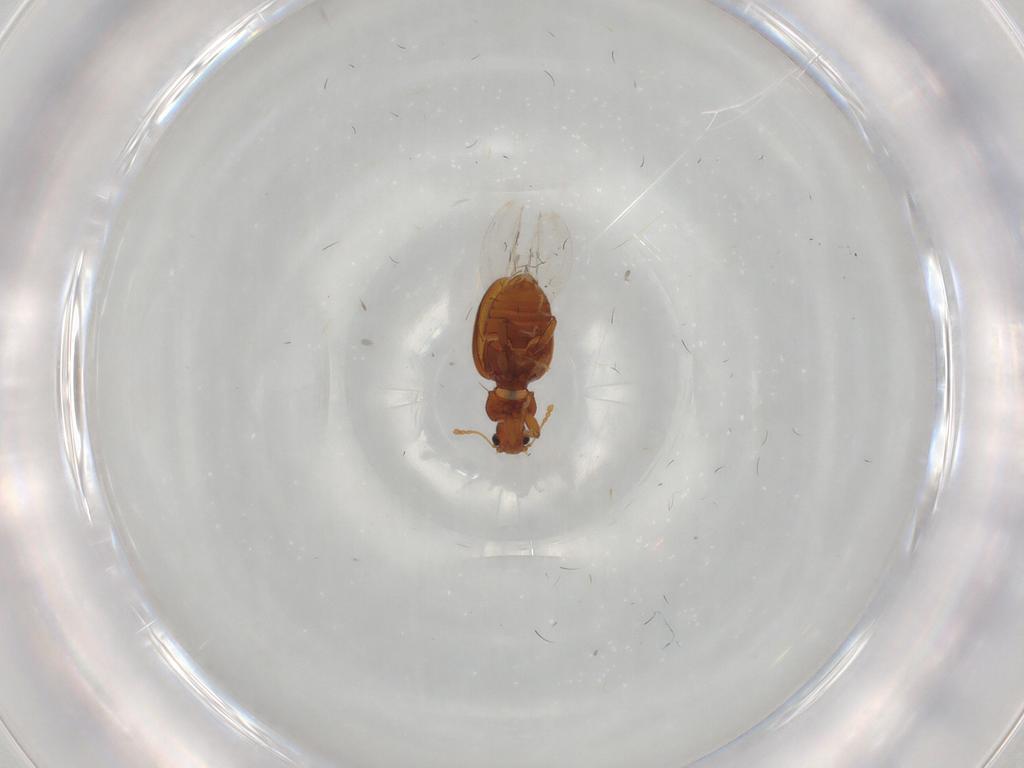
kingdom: Animalia
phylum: Arthropoda
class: Insecta
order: Coleoptera
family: Latridiidae
